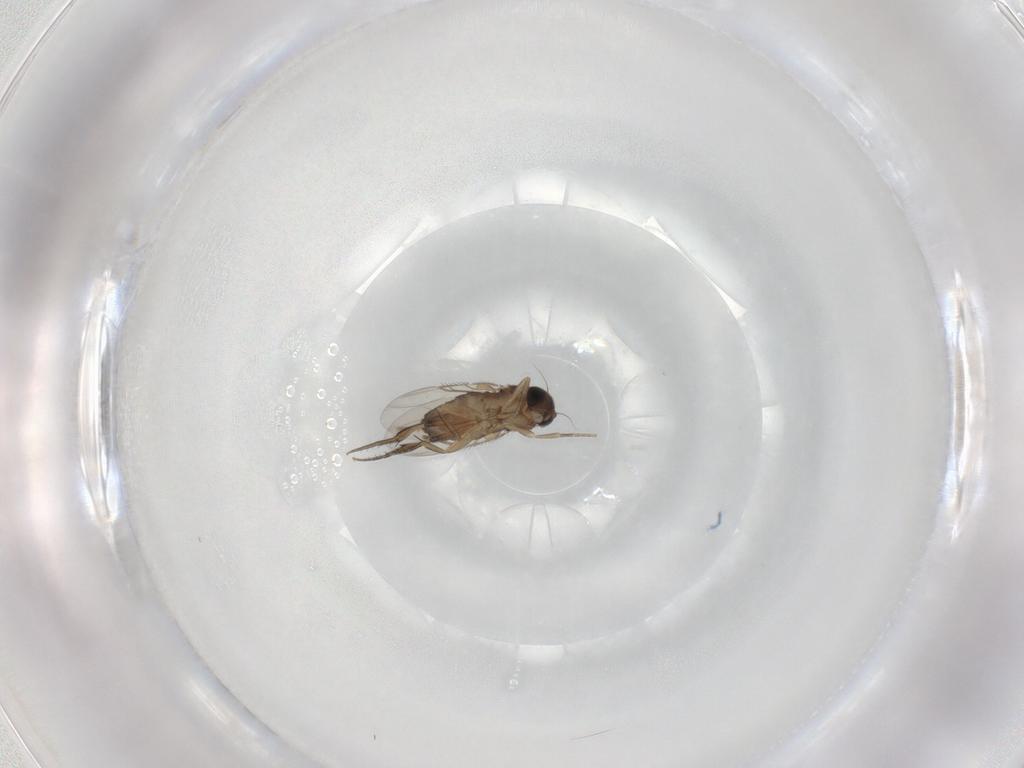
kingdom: Animalia
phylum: Arthropoda
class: Insecta
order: Diptera
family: Phoridae
